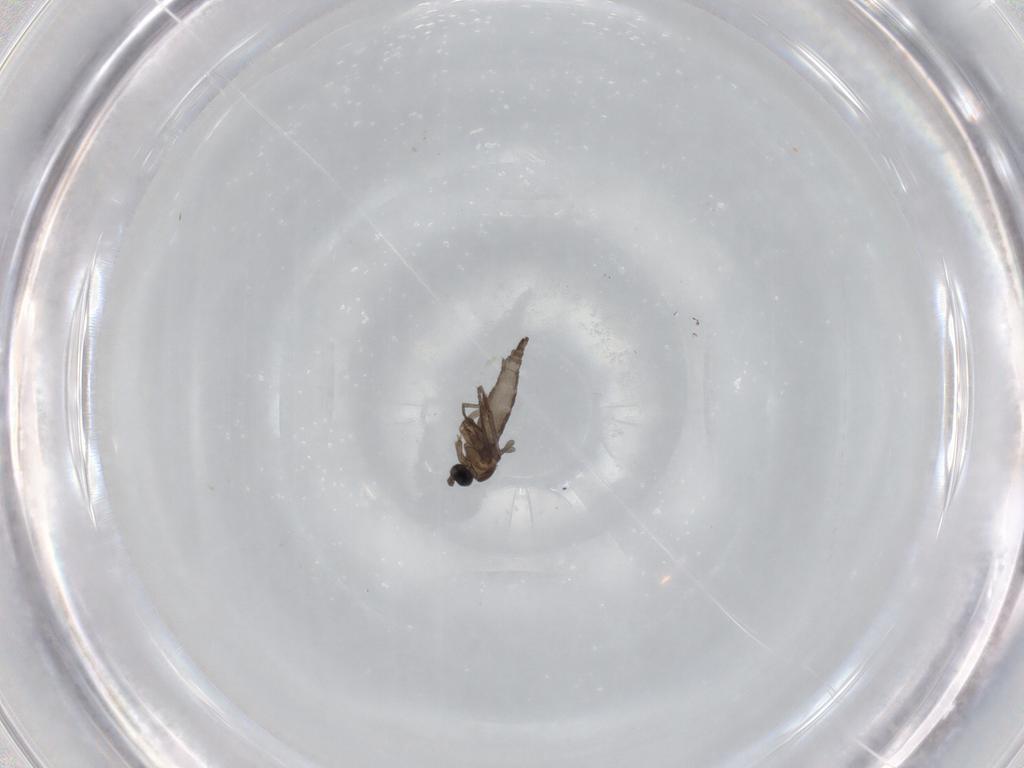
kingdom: Animalia
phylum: Arthropoda
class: Insecta
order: Diptera
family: Sciaridae
